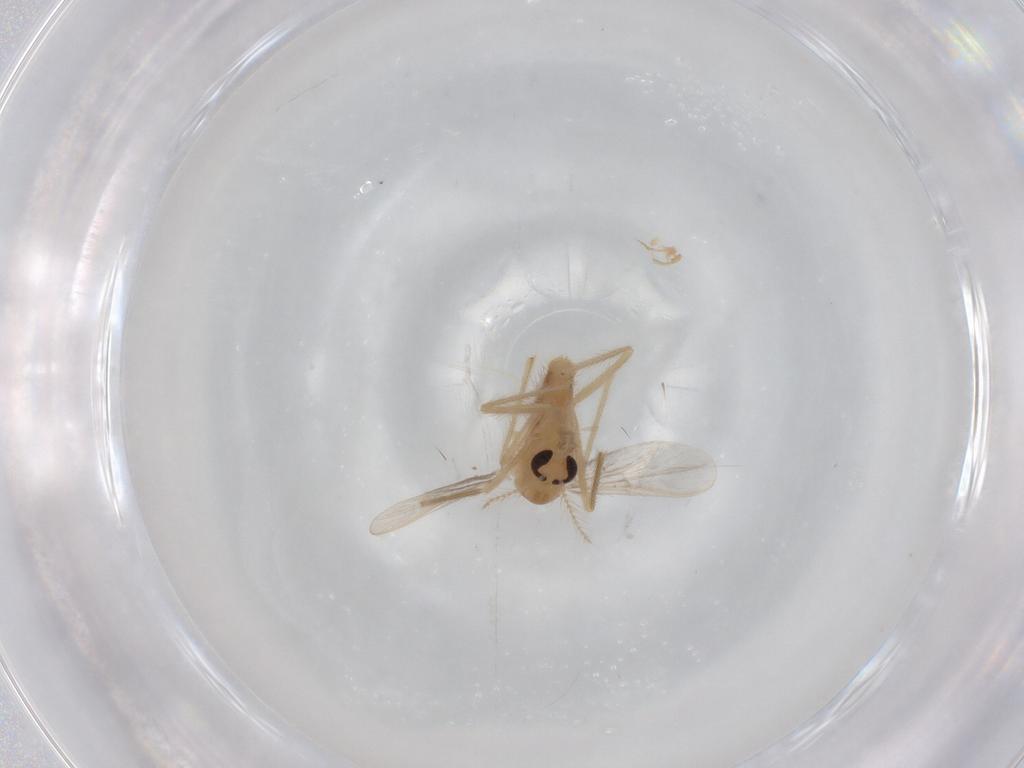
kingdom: Animalia
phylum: Arthropoda
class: Insecta
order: Diptera
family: Chironomidae
